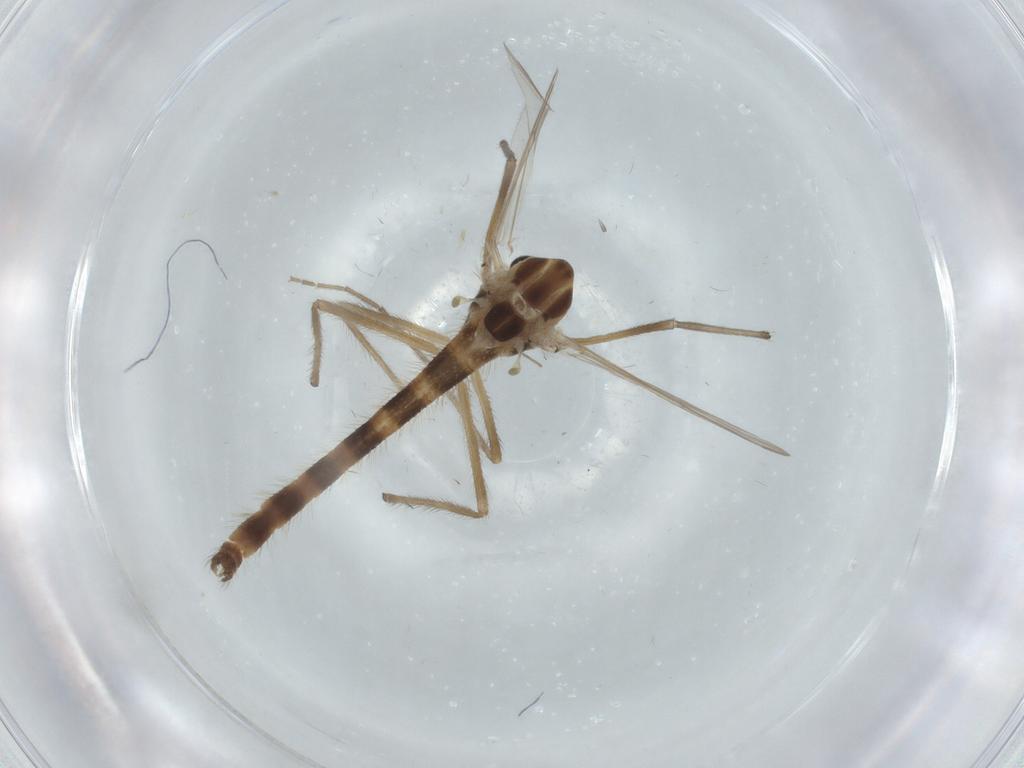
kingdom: Animalia
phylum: Arthropoda
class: Insecta
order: Diptera
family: Chironomidae
